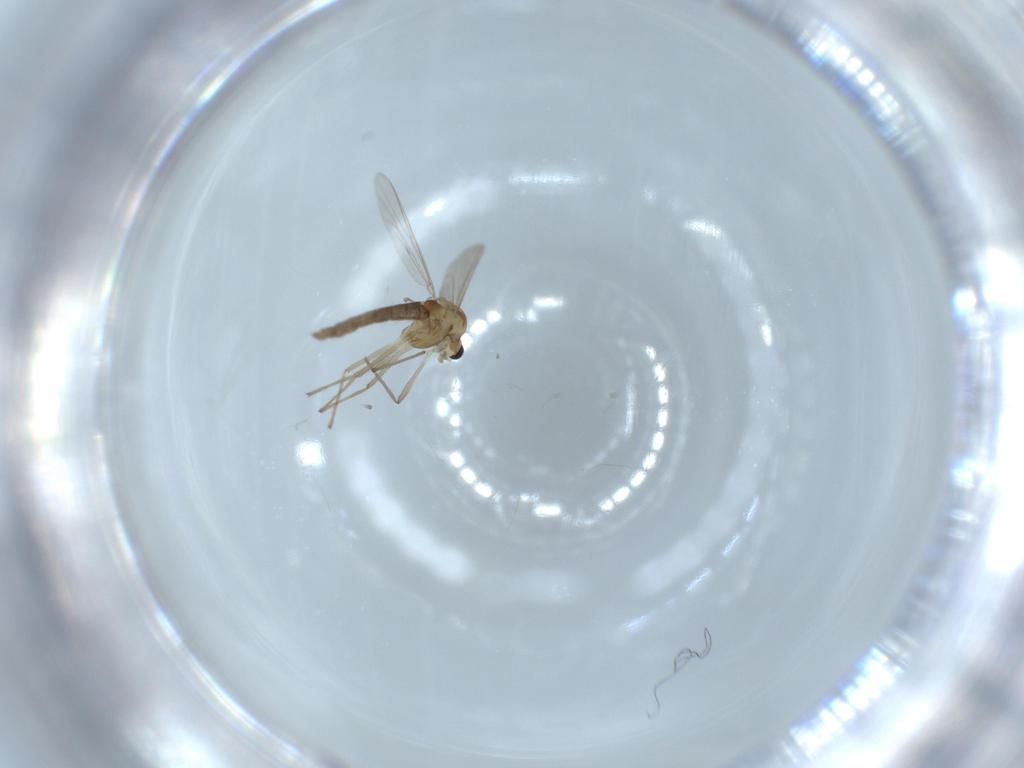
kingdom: Animalia
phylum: Arthropoda
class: Insecta
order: Diptera
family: Chironomidae
